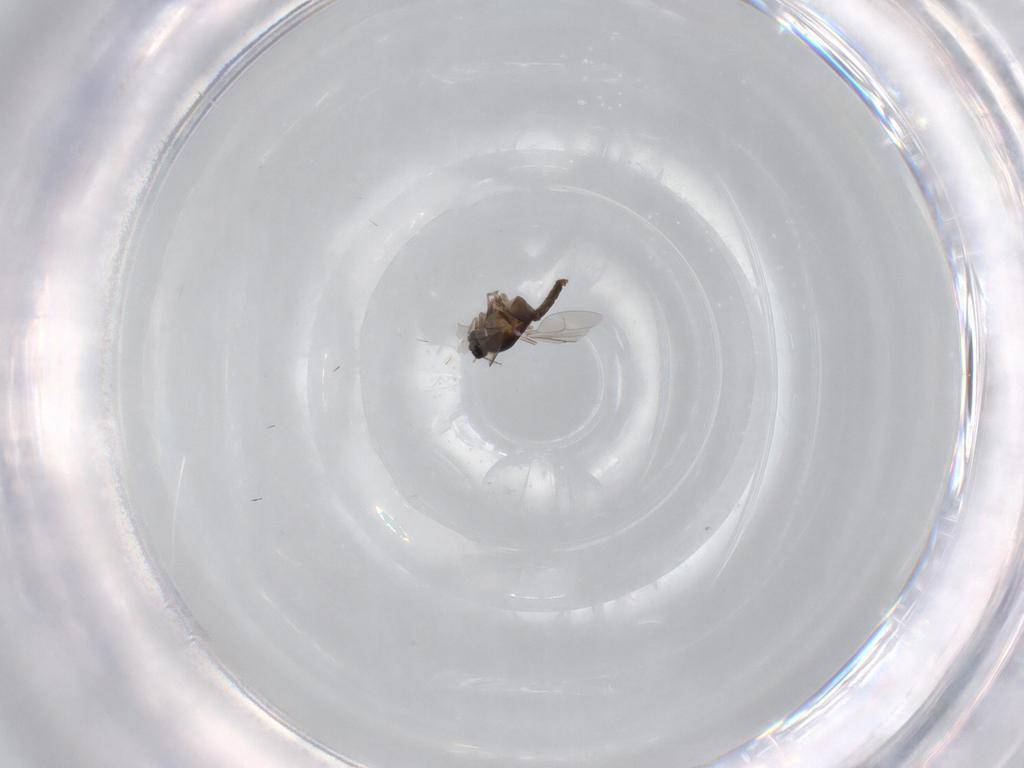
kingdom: Animalia
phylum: Arthropoda
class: Insecta
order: Diptera
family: Cecidomyiidae
